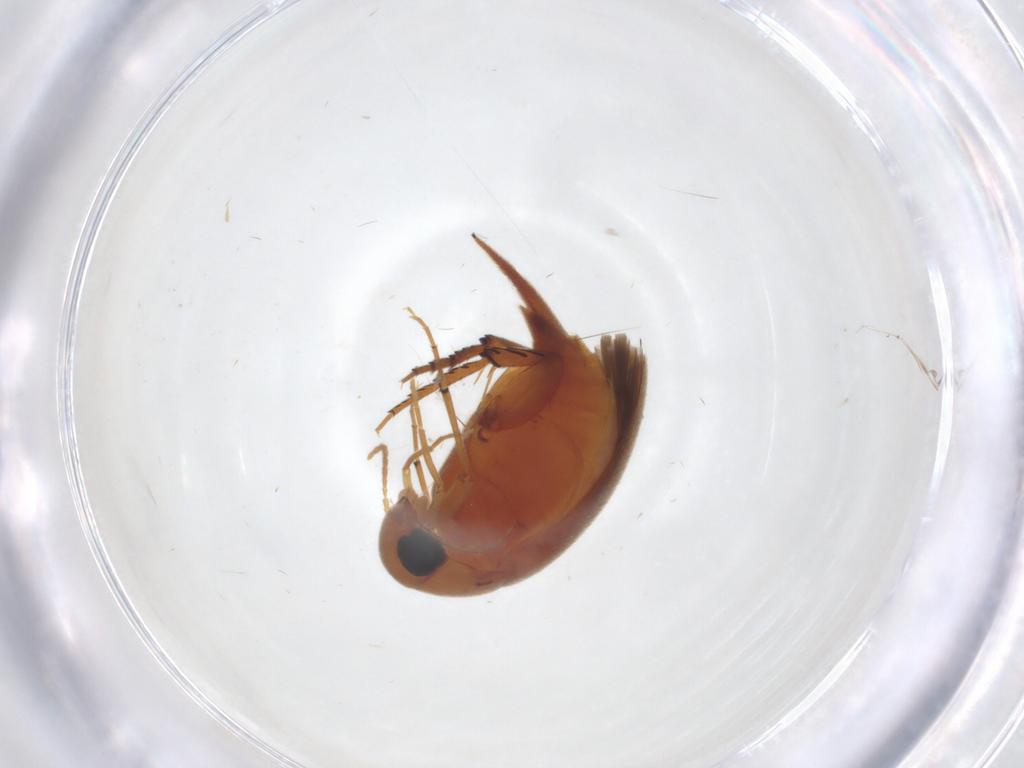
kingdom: Animalia
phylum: Arthropoda
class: Insecta
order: Coleoptera
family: Mordellidae
